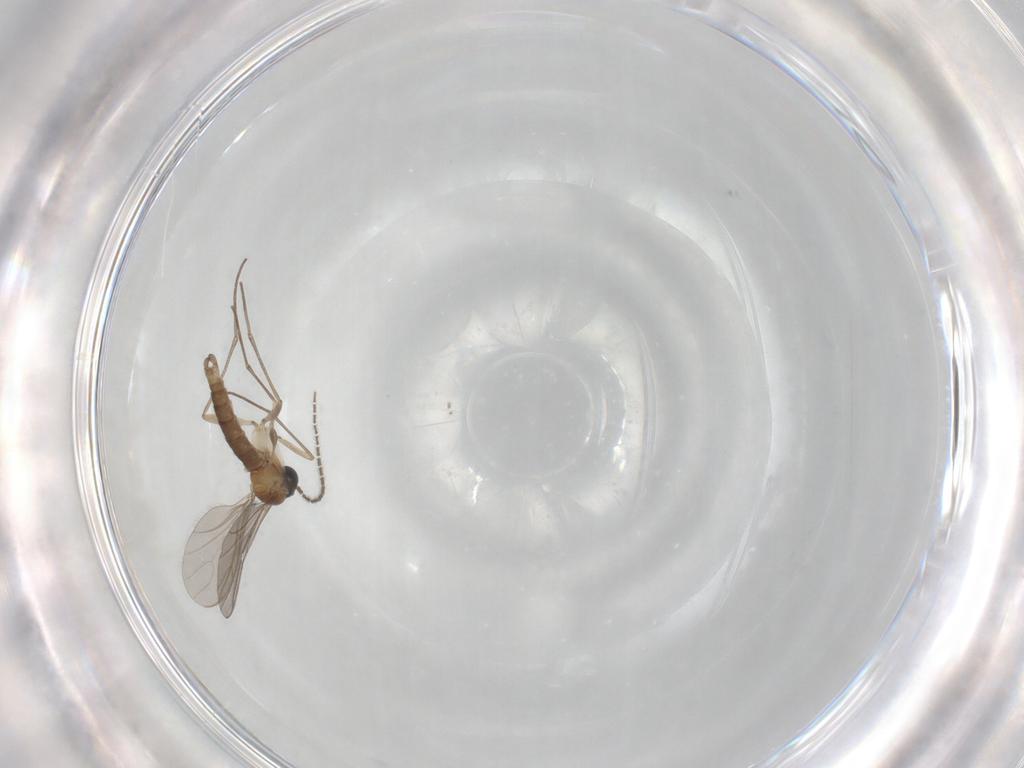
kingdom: Animalia
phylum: Arthropoda
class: Insecta
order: Diptera
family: Sciaridae
